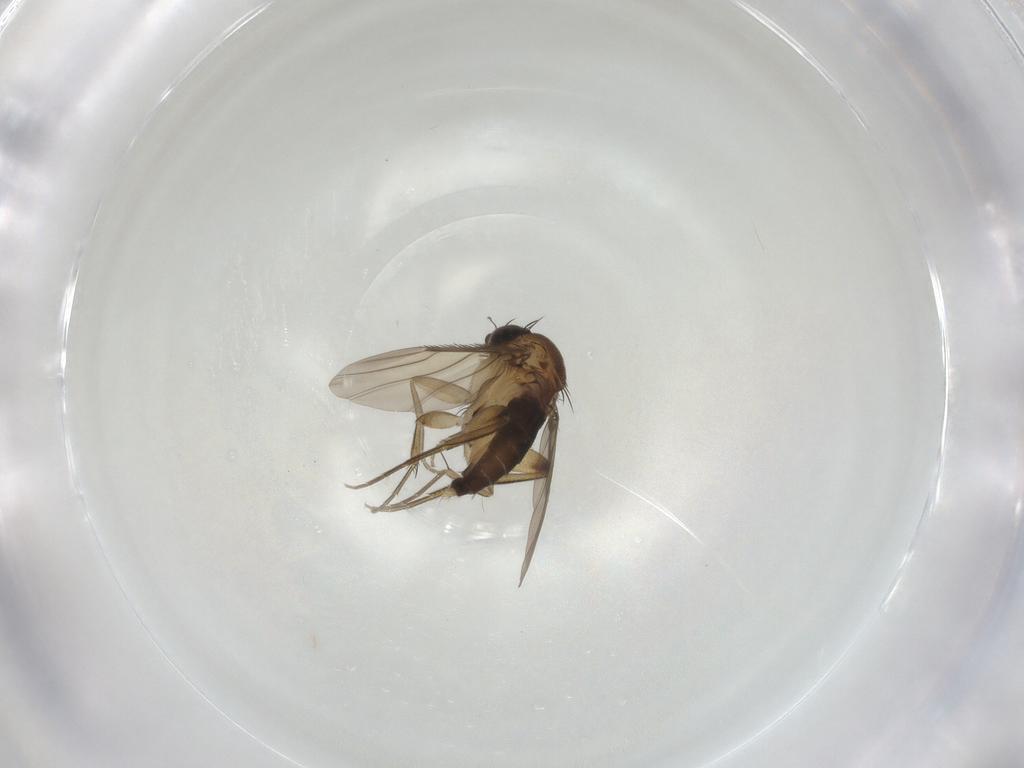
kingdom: Animalia
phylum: Arthropoda
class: Insecta
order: Diptera
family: Phoridae
